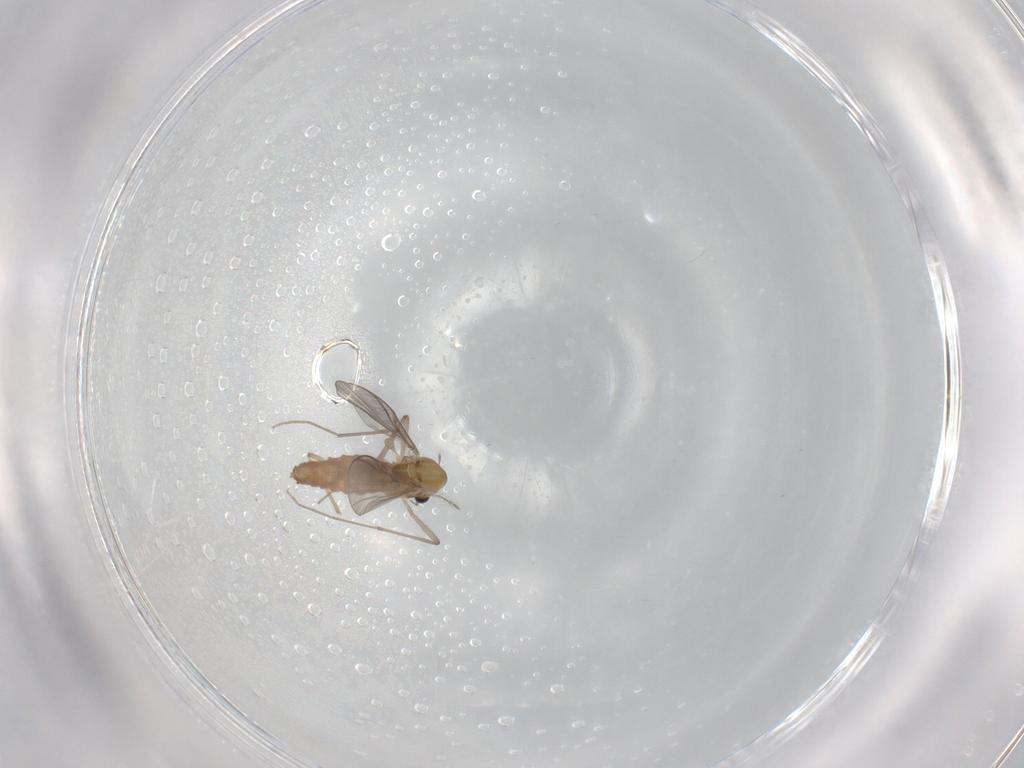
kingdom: Animalia
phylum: Arthropoda
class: Insecta
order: Diptera
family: Chironomidae
